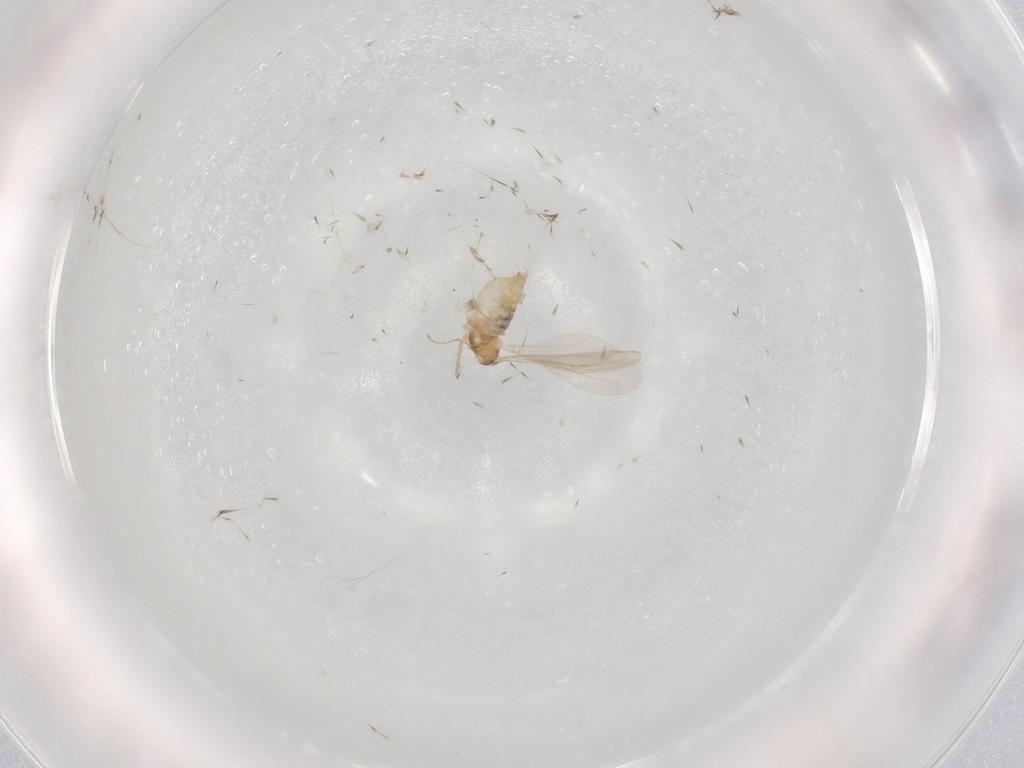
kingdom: Animalia
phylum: Arthropoda
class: Insecta
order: Diptera
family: Cecidomyiidae
